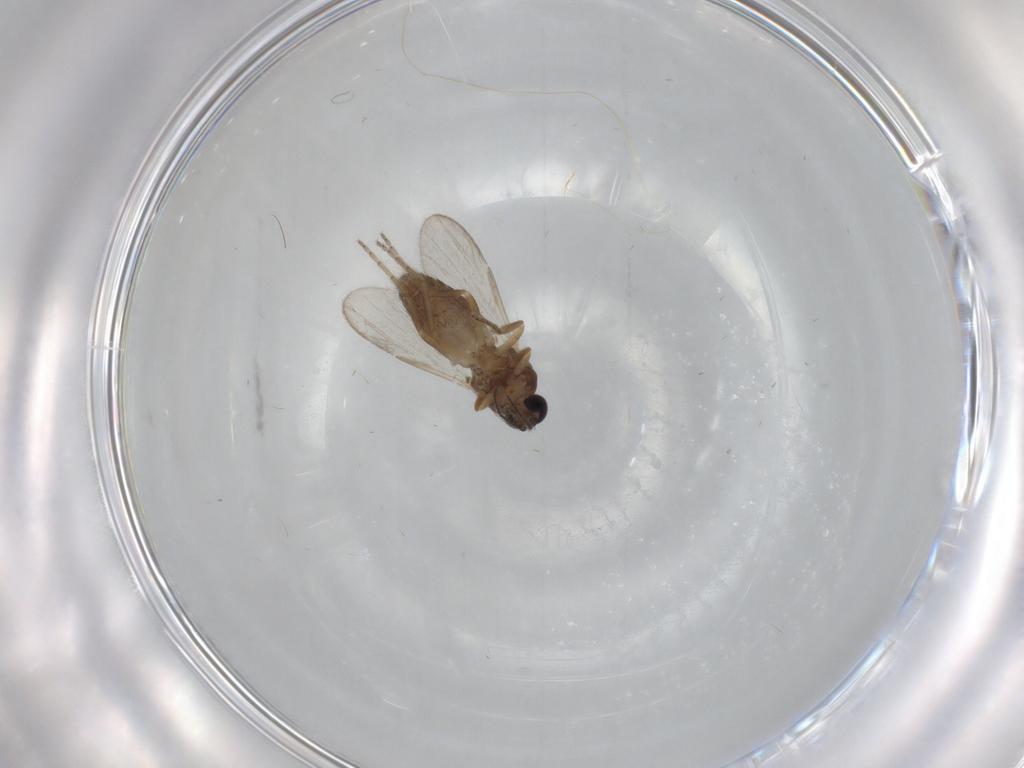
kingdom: Animalia
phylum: Arthropoda
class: Insecta
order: Diptera
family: Ceratopogonidae
